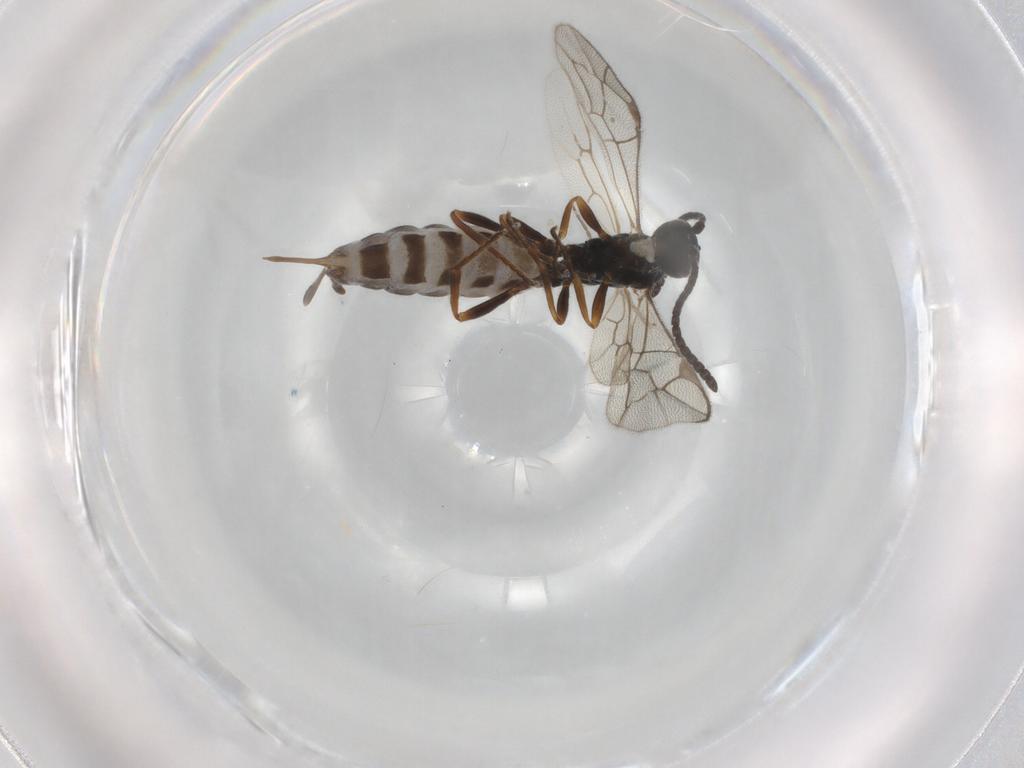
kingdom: Animalia
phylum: Arthropoda
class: Insecta
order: Hymenoptera
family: Ichneumonidae
